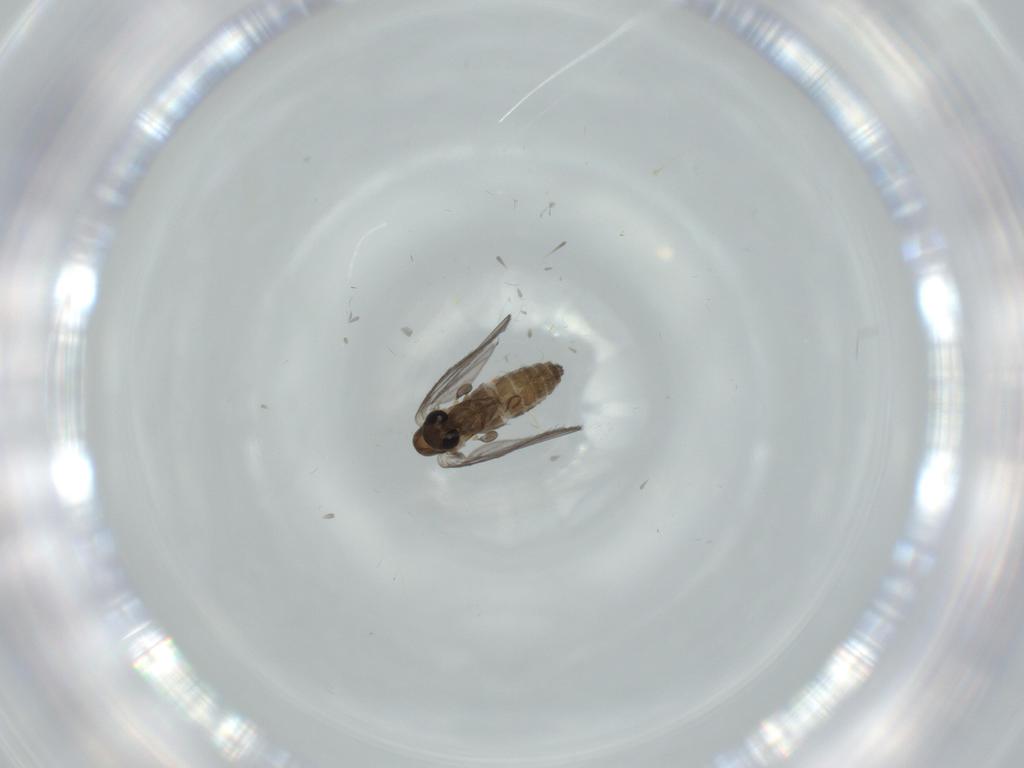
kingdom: Animalia
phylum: Arthropoda
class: Insecta
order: Diptera
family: Psychodidae
